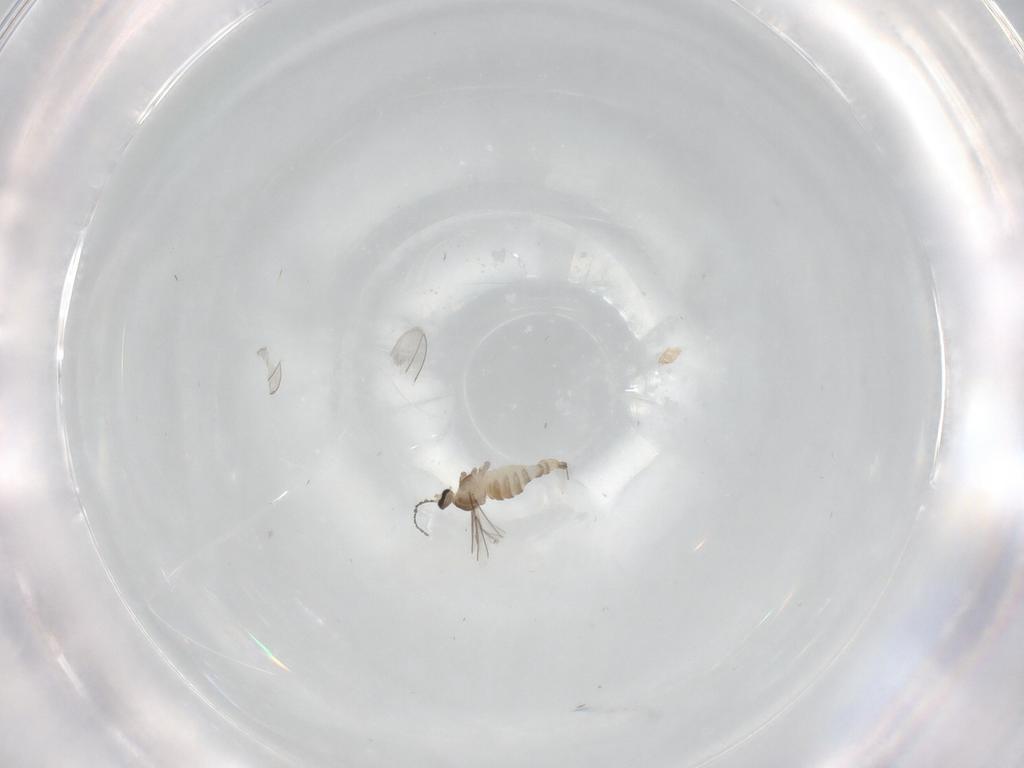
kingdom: Animalia
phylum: Arthropoda
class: Insecta
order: Diptera
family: Cecidomyiidae
